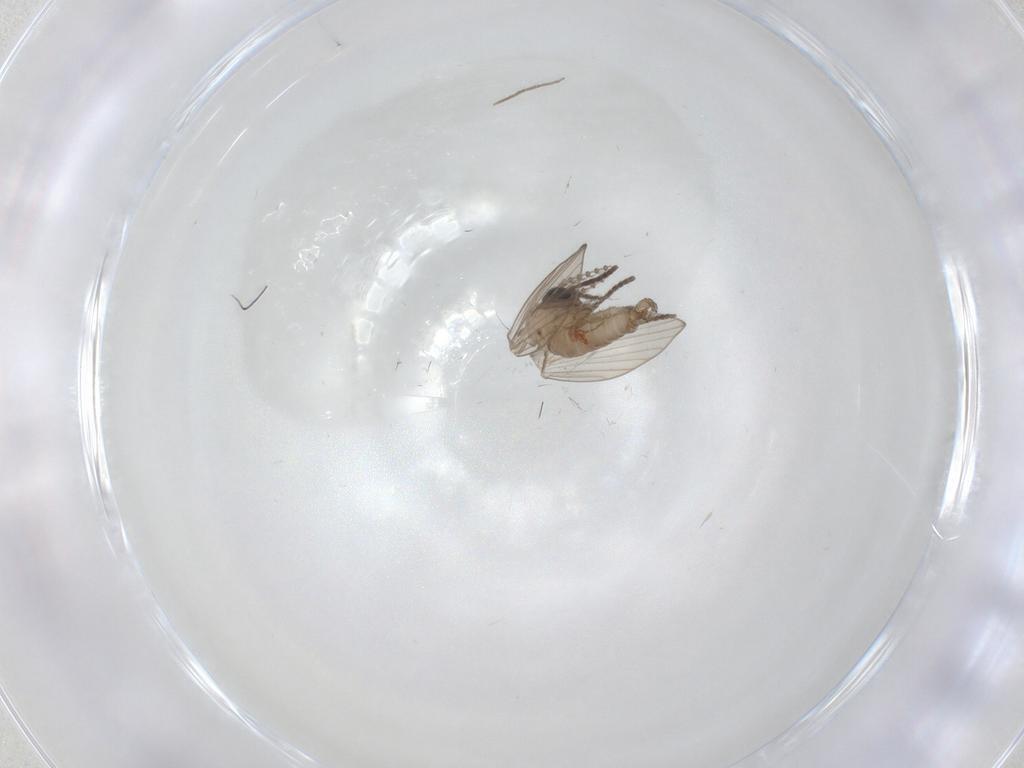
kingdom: Animalia
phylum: Arthropoda
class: Insecta
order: Diptera
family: Psychodidae
